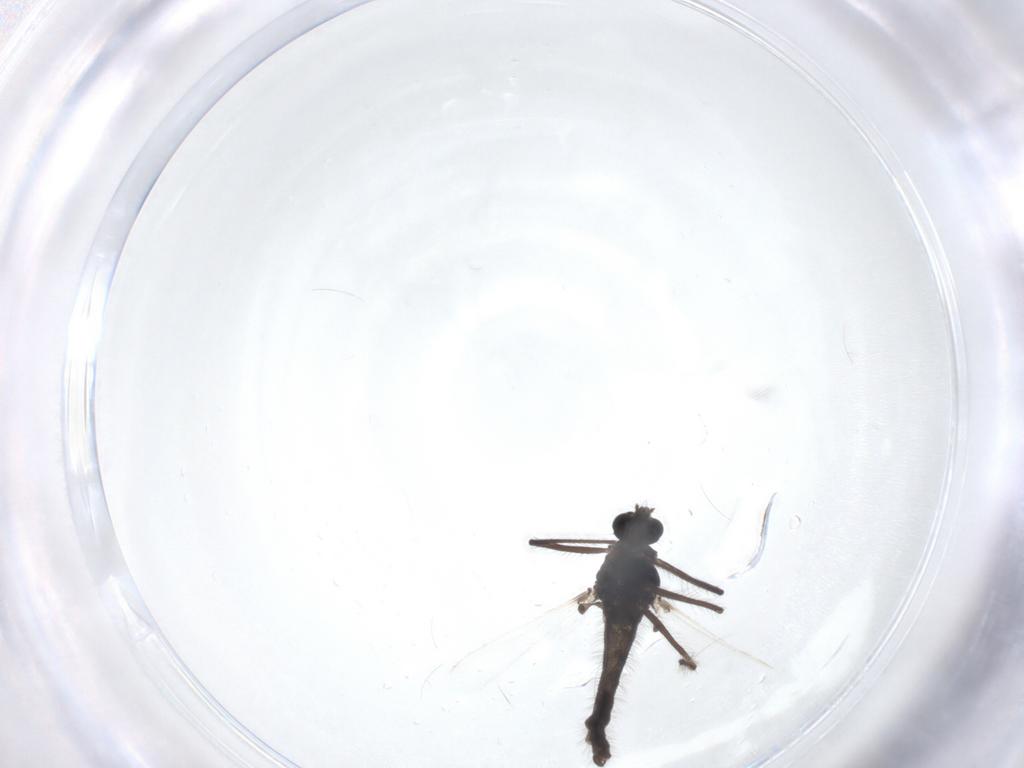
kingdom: Animalia
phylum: Arthropoda
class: Insecta
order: Diptera
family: Chironomidae
